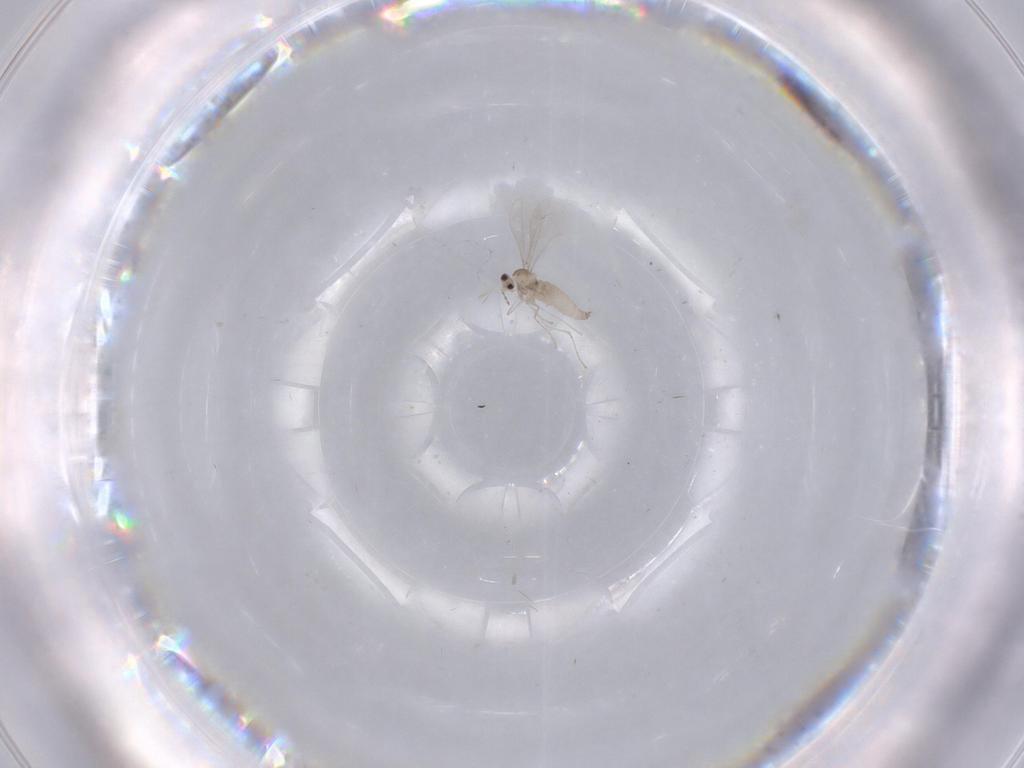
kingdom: Animalia
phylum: Arthropoda
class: Insecta
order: Diptera
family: Cecidomyiidae
